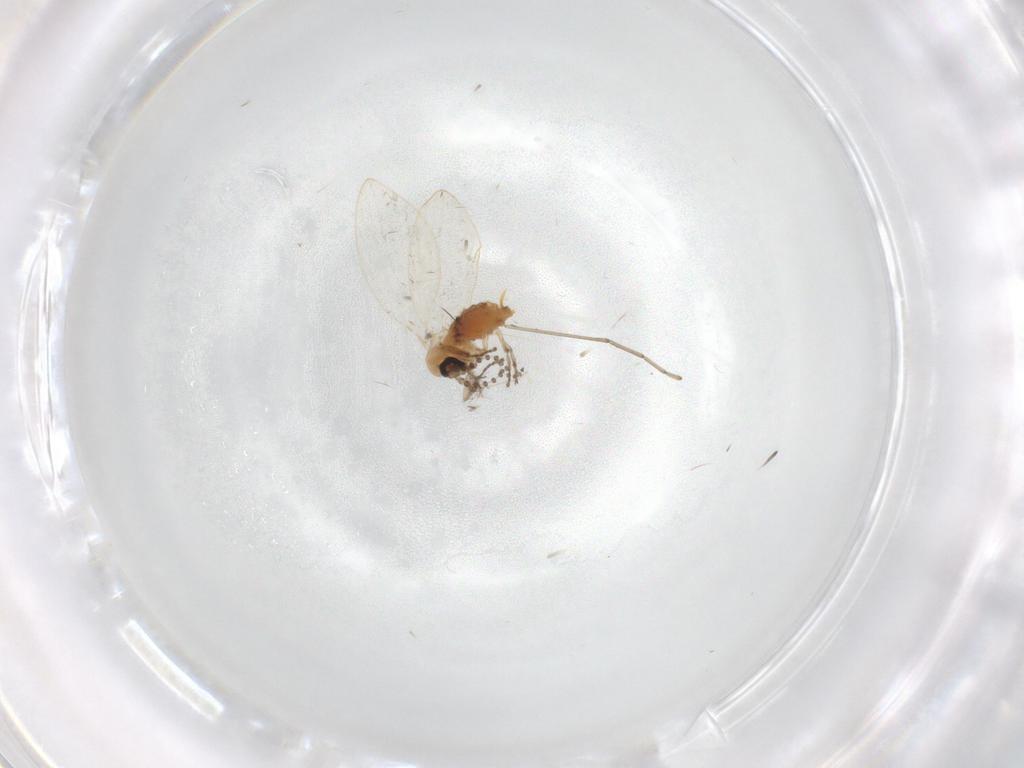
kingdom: Animalia
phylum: Arthropoda
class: Insecta
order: Diptera
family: Psychodidae
